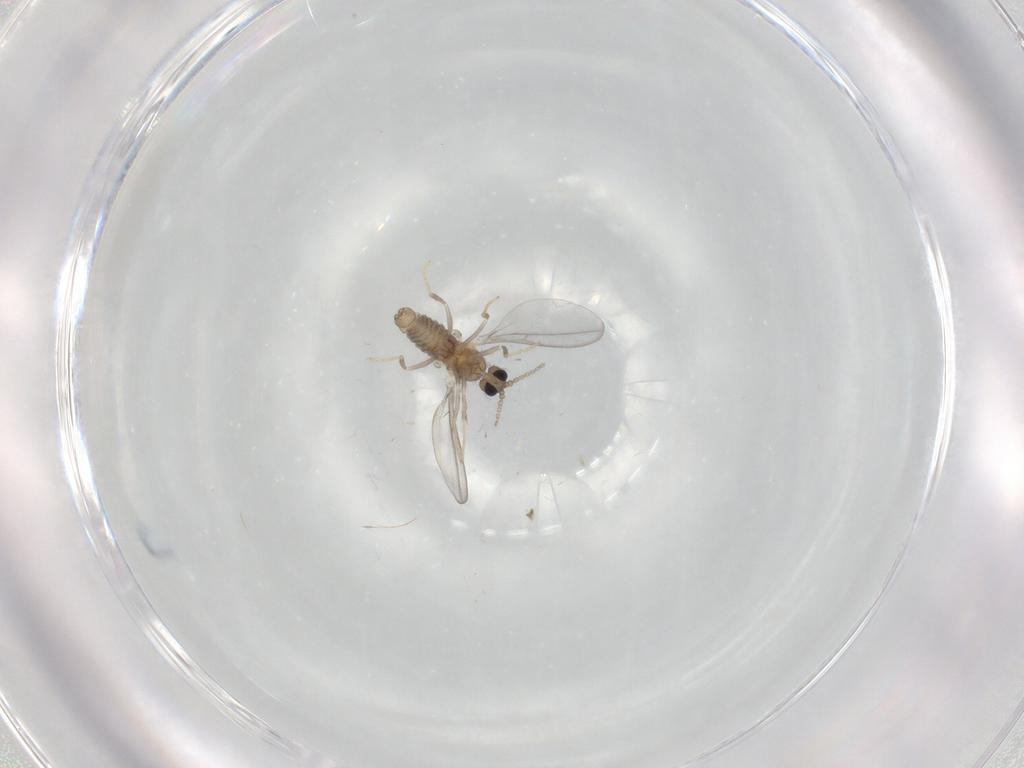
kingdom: Animalia
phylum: Arthropoda
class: Insecta
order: Diptera
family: Cecidomyiidae
